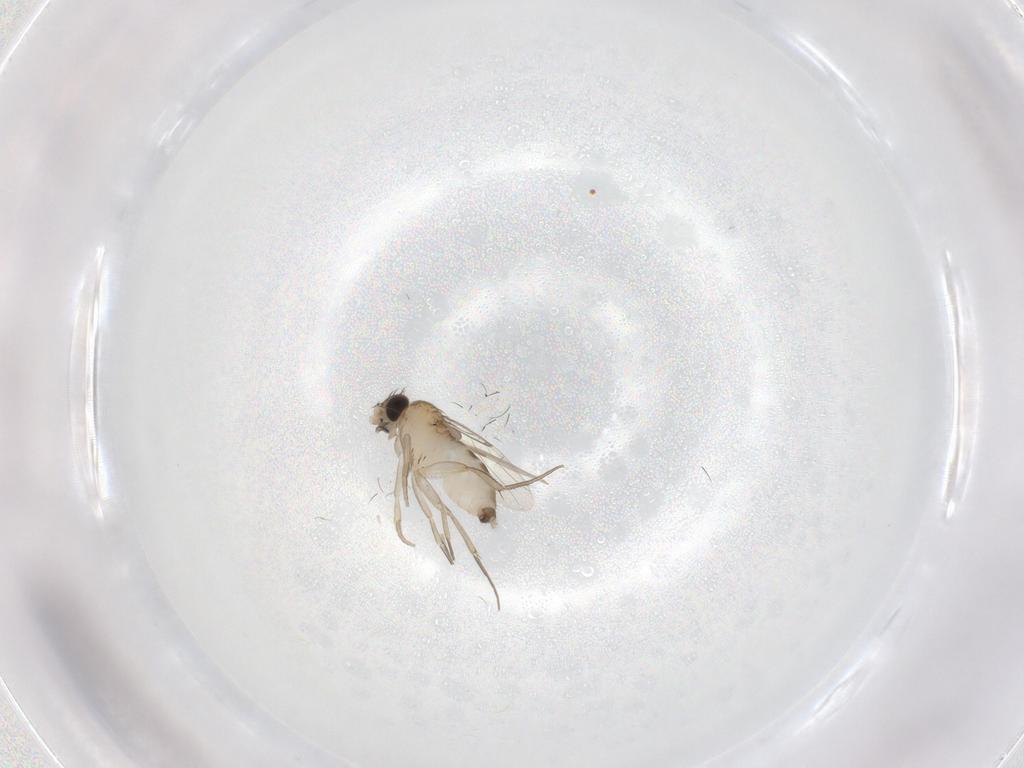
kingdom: Animalia
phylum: Arthropoda
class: Insecta
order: Diptera
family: Phoridae
